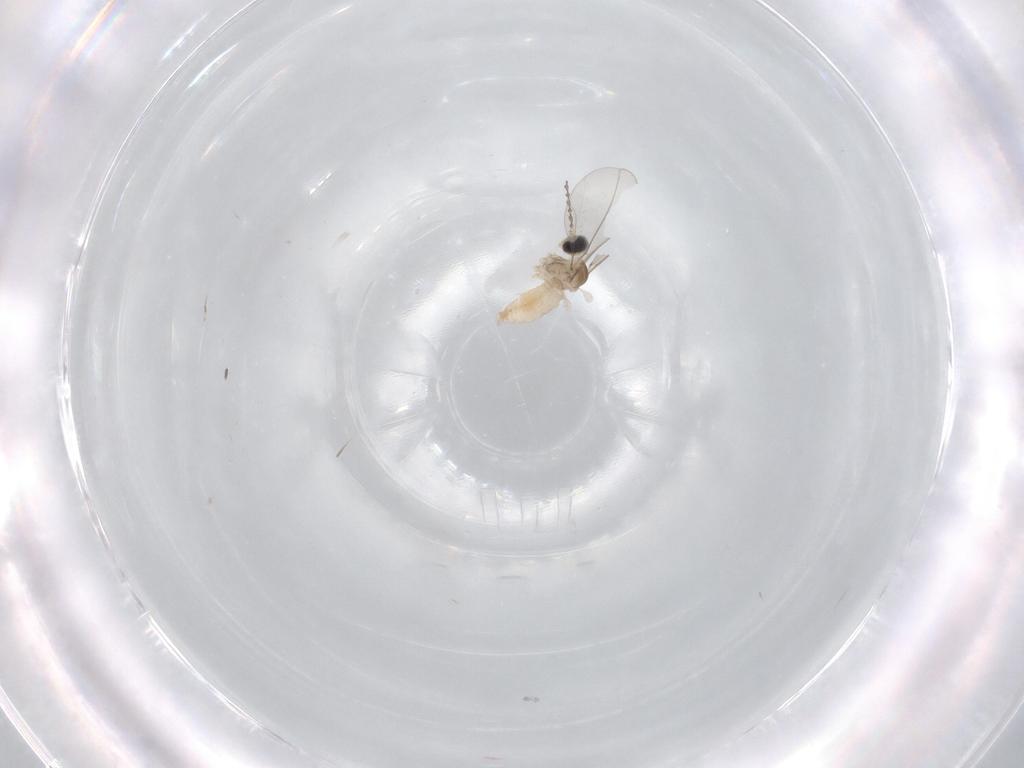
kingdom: Animalia
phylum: Arthropoda
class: Insecta
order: Diptera
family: Cecidomyiidae
